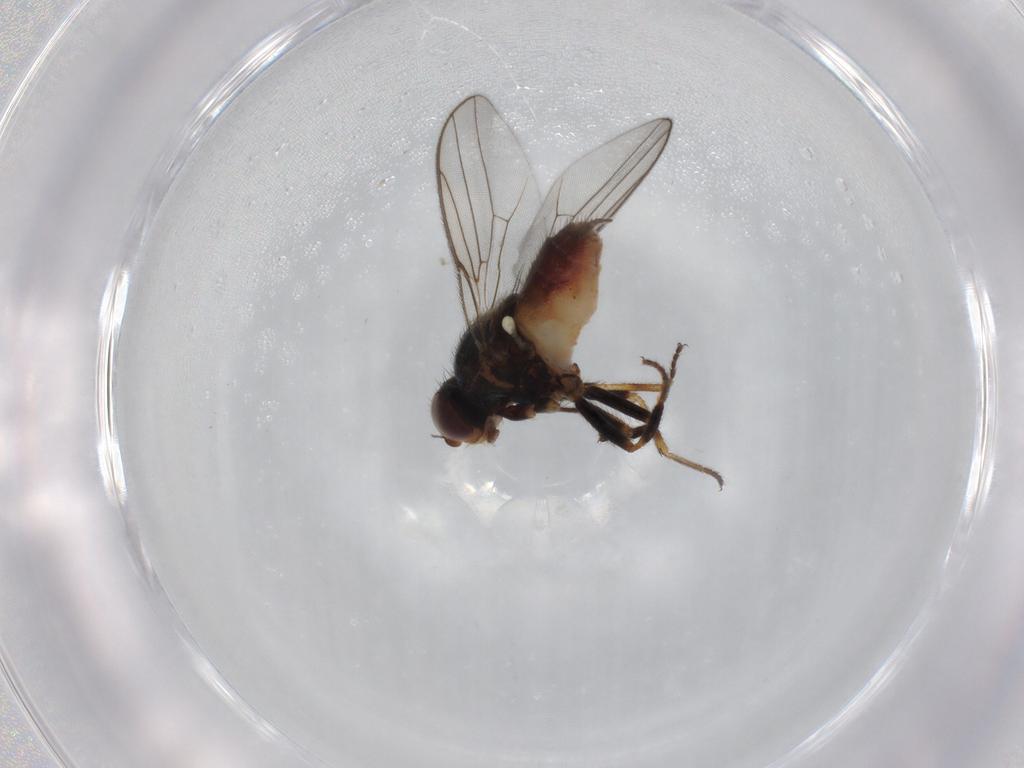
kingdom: Animalia
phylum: Arthropoda
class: Insecta
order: Diptera
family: Chloropidae
